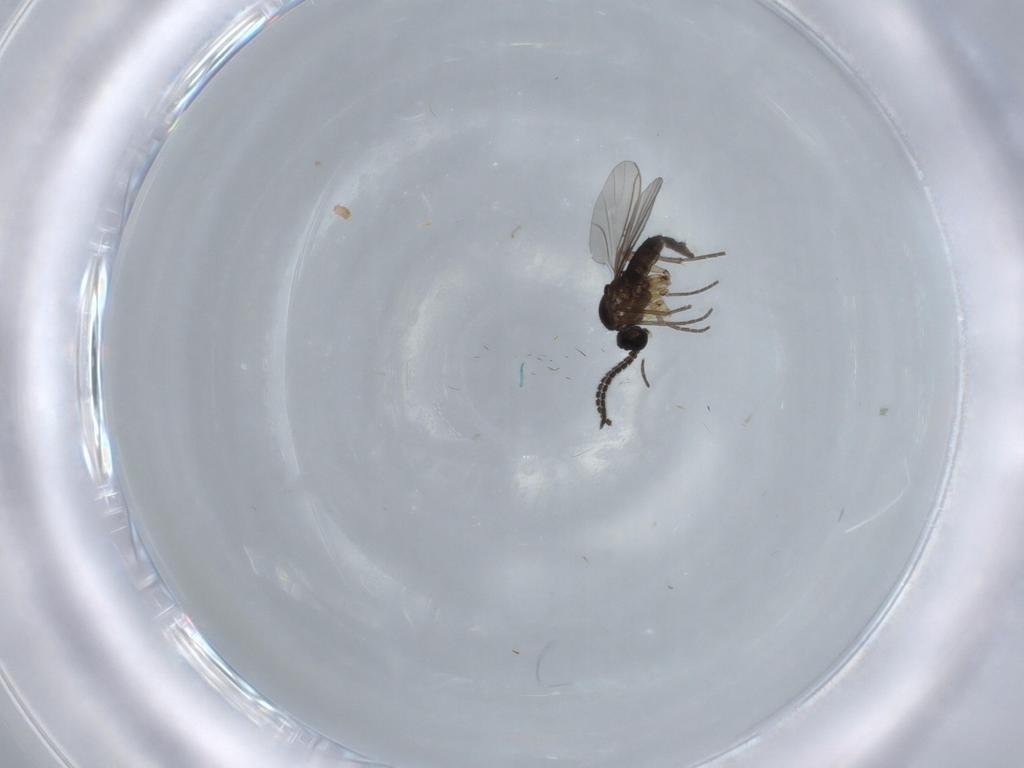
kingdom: Animalia
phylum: Arthropoda
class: Insecta
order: Diptera
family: Sciaridae
